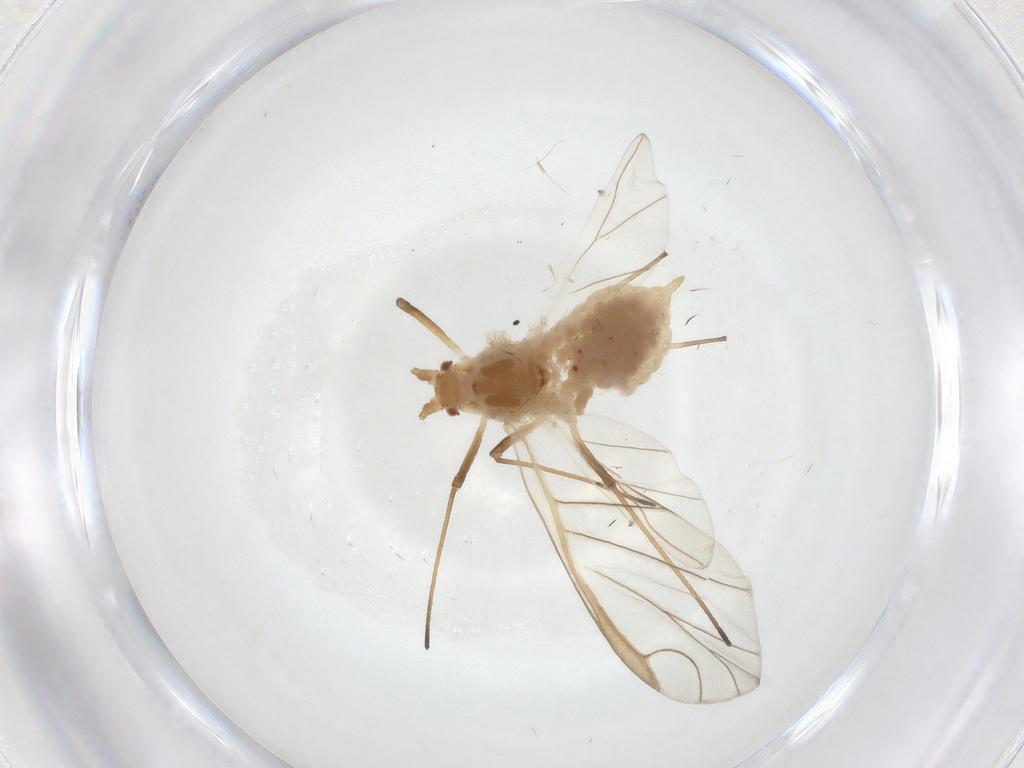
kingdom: Animalia
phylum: Arthropoda
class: Insecta
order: Hemiptera
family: Aphididae
